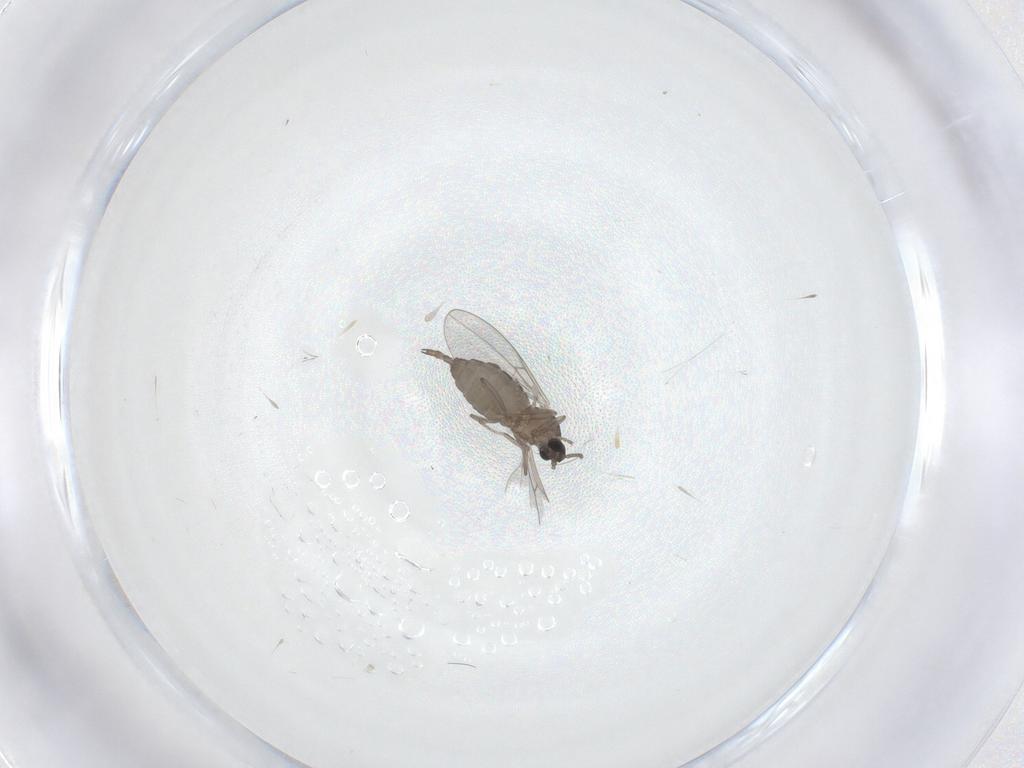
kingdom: Animalia
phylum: Arthropoda
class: Insecta
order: Diptera
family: Cecidomyiidae
